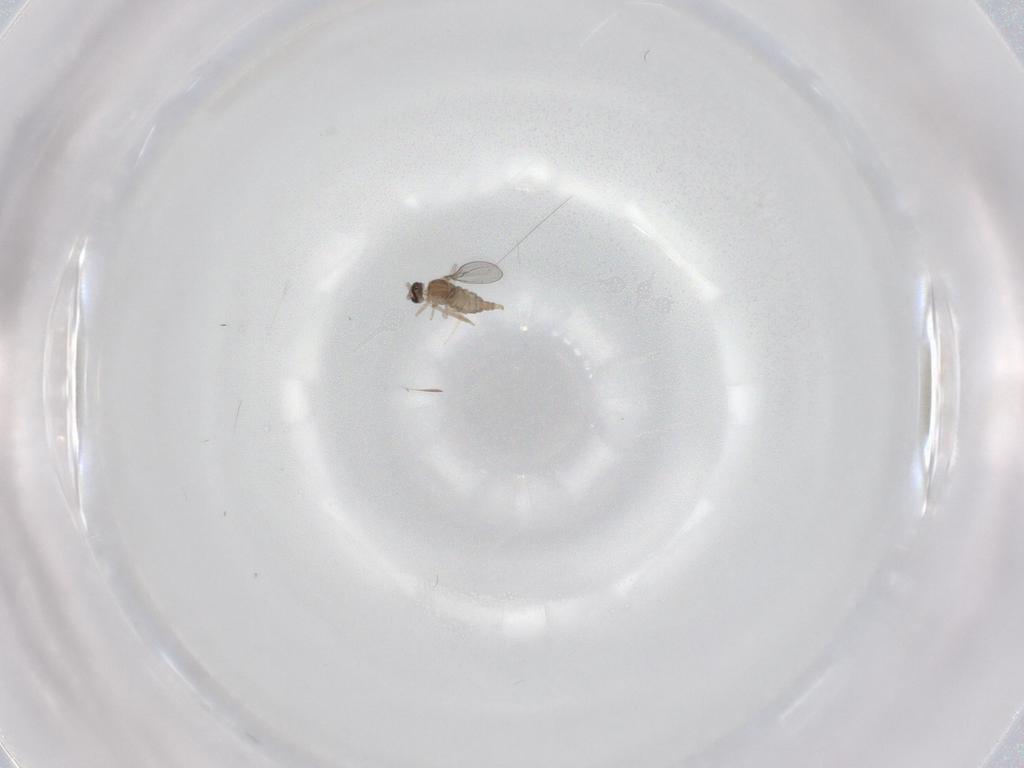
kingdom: Animalia
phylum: Arthropoda
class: Insecta
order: Diptera
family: Cecidomyiidae
